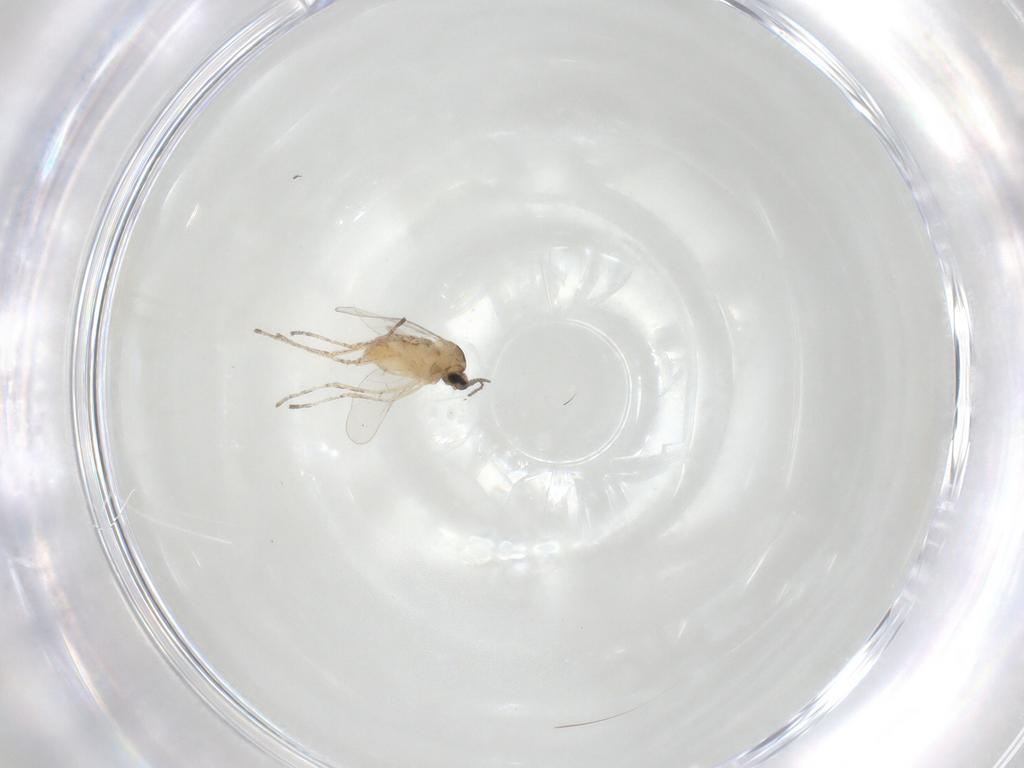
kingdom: Animalia
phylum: Arthropoda
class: Insecta
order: Diptera
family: Cecidomyiidae
